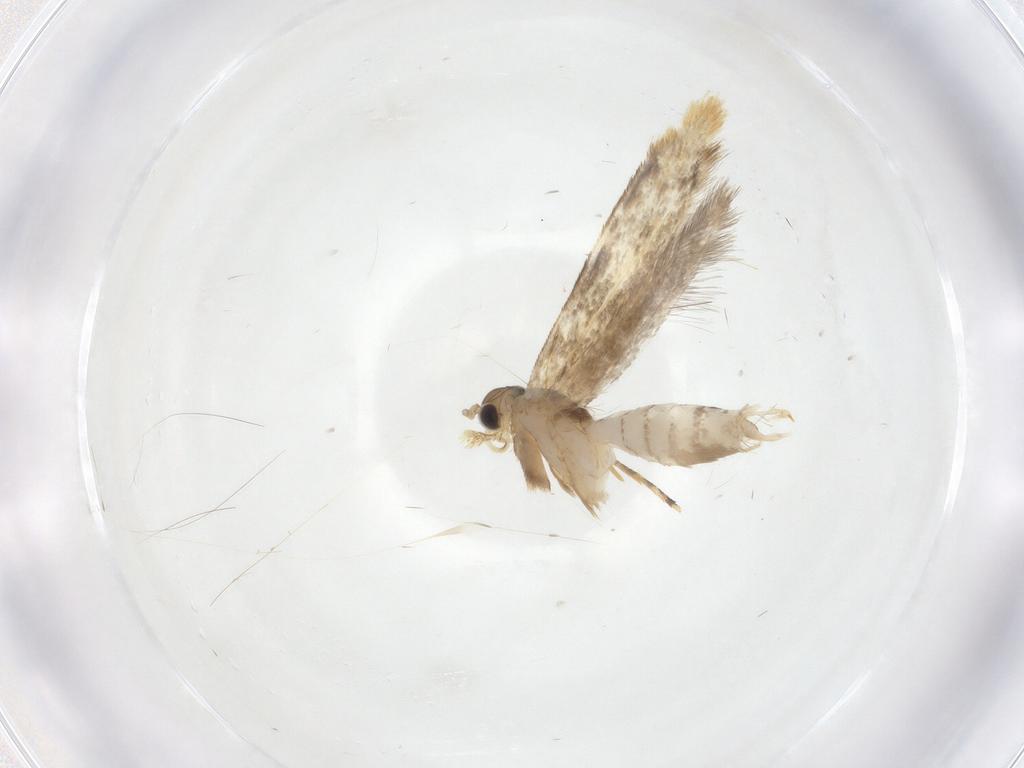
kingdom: Animalia
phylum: Arthropoda
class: Insecta
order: Lepidoptera
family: Dryadaulidae
